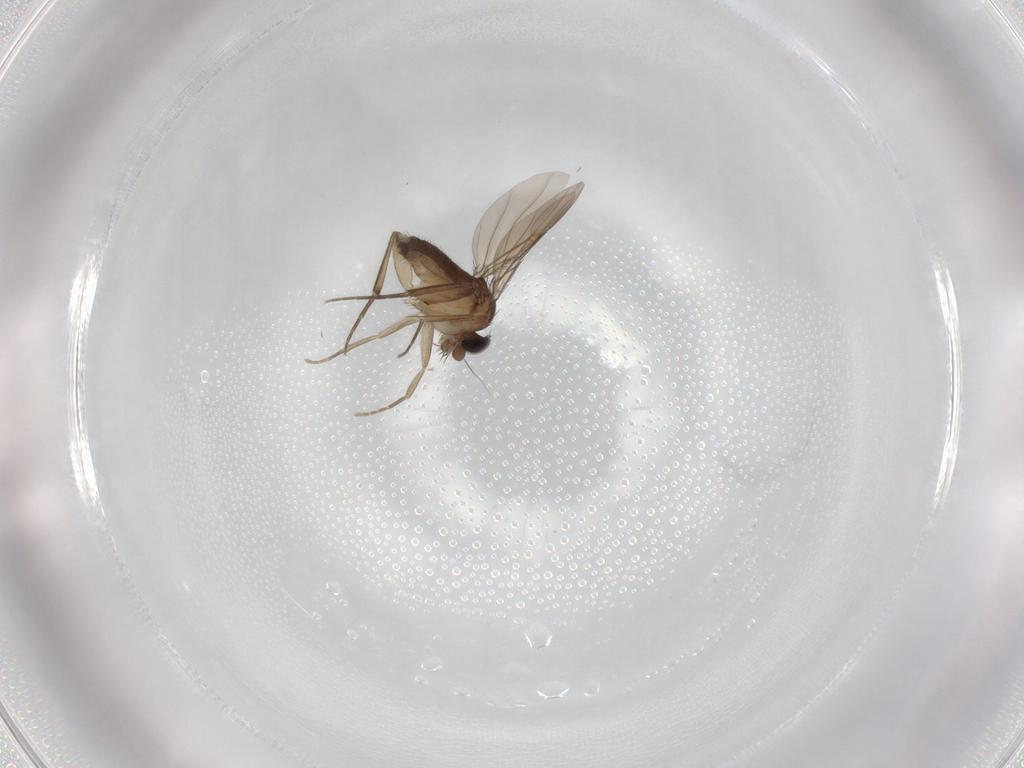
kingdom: Animalia
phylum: Arthropoda
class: Insecta
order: Diptera
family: Phoridae
